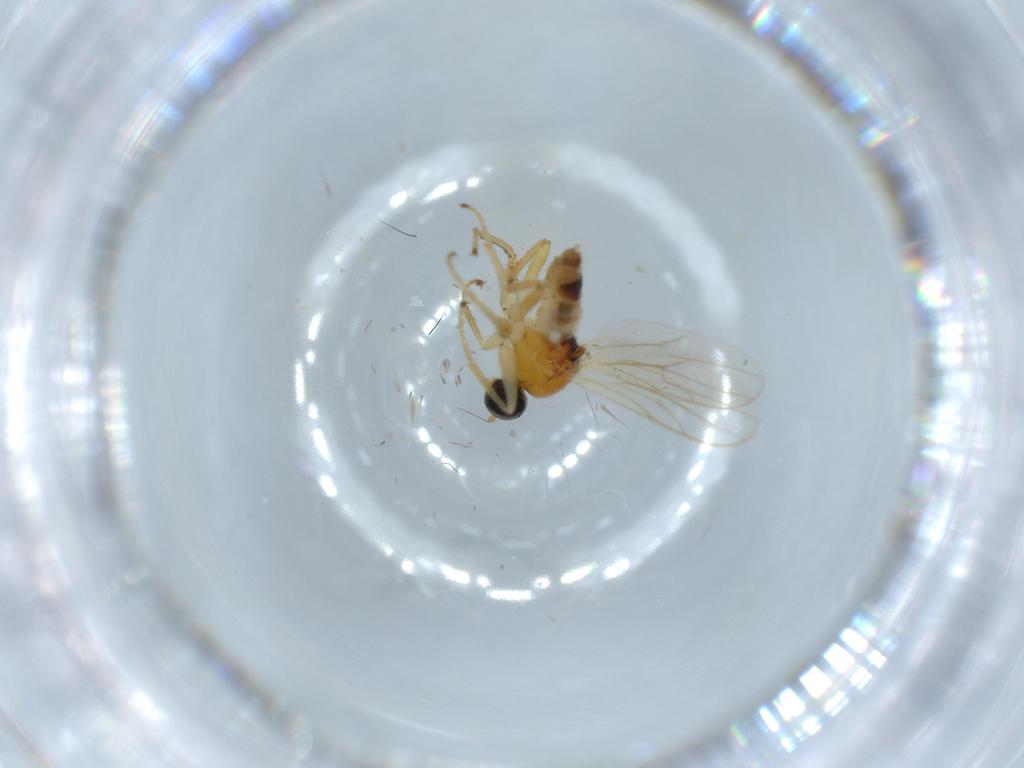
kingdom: Animalia
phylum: Arthropoda
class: Insecta
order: Diptera
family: Hybotidae
